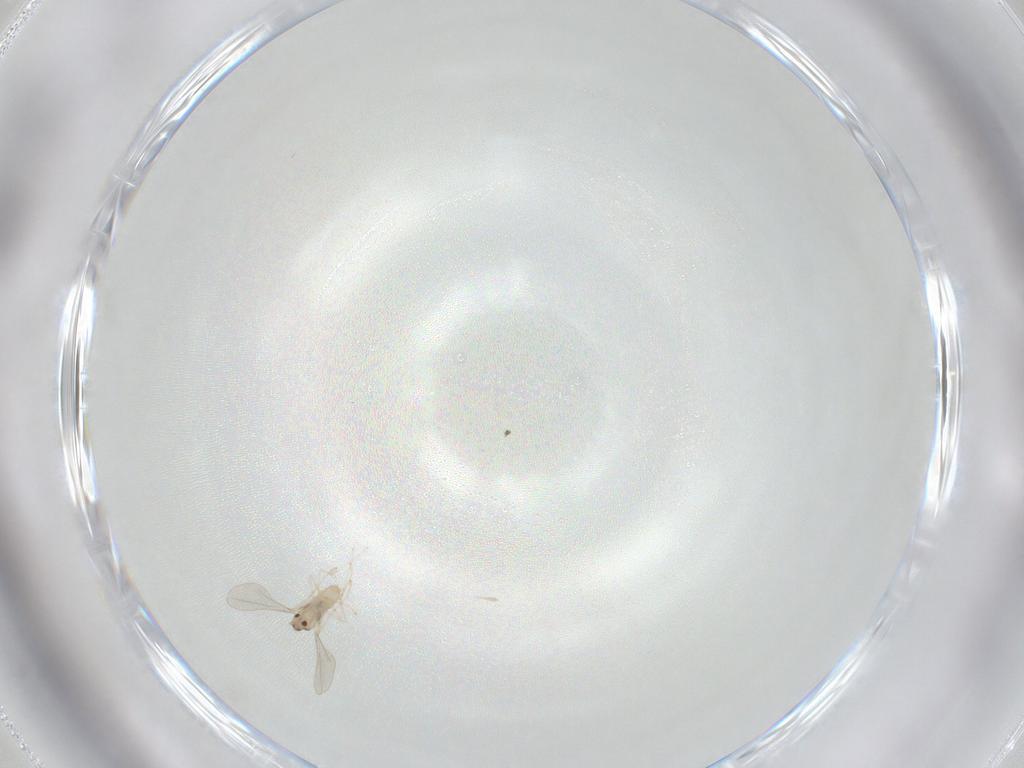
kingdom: Animalia
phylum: Arthropoda
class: Insecta
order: Diptera
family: Cecidomyiidae
